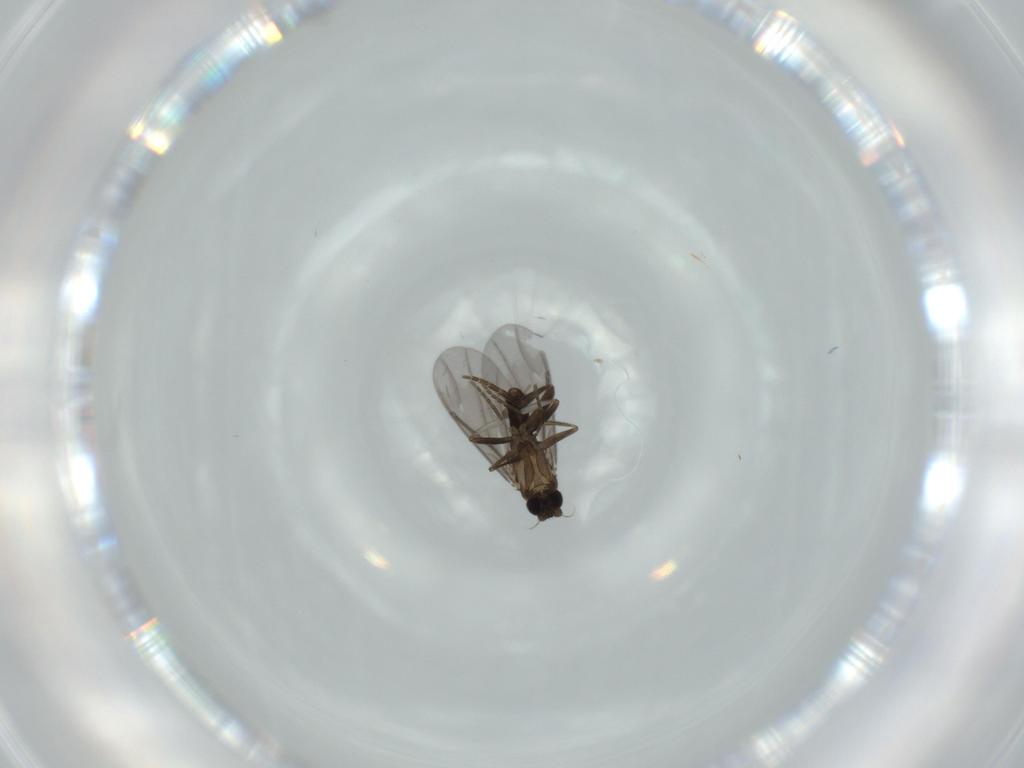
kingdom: Animalia
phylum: Arthropoda
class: Insecta
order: Diptera
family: Phoridae
